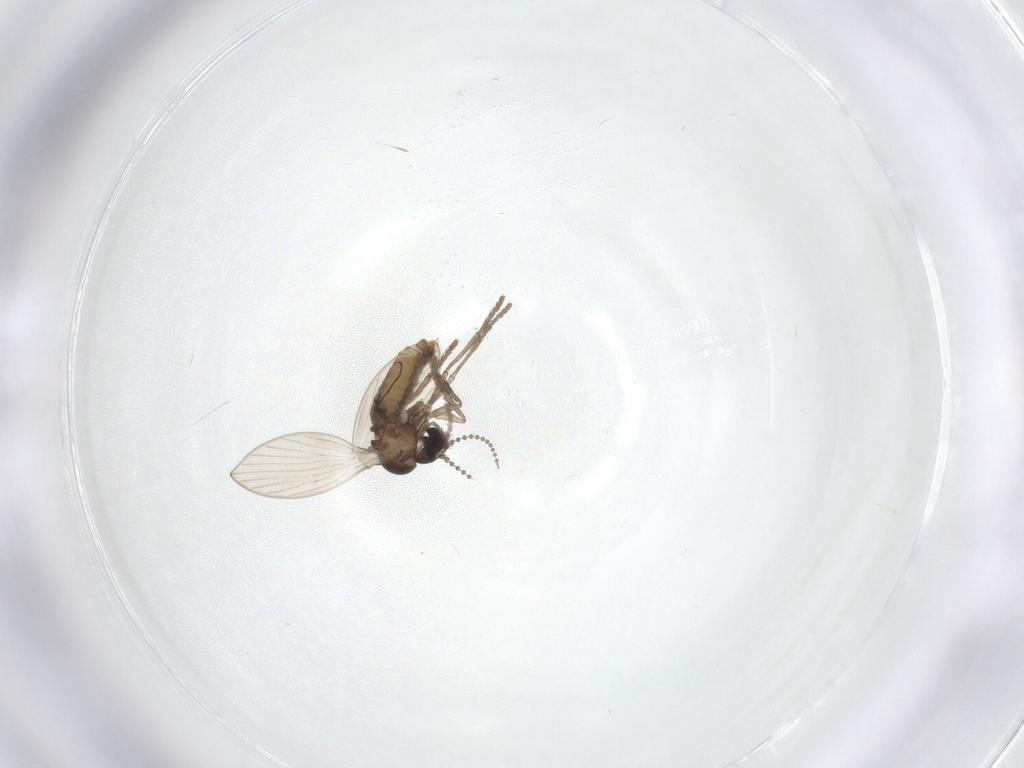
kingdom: Animalia
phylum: Arthropoda
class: Insecta
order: Diptera
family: Psychodidae
